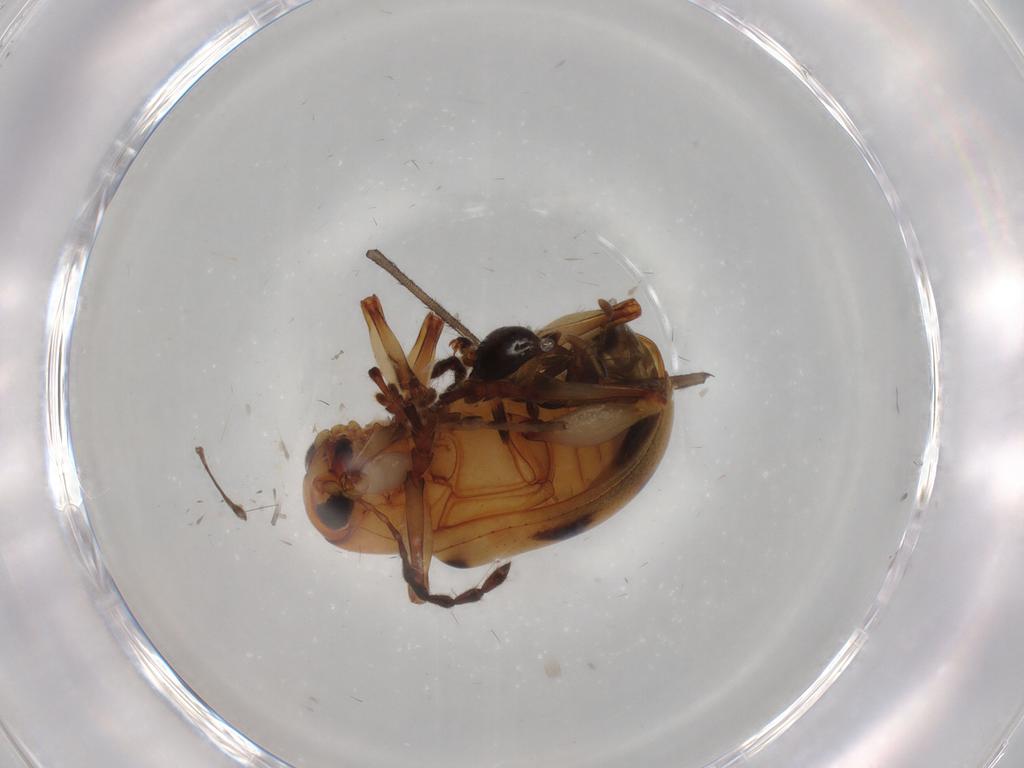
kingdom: Animalia
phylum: Arthropoda
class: Insecta
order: Coleoptera
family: Chrysomelidae
